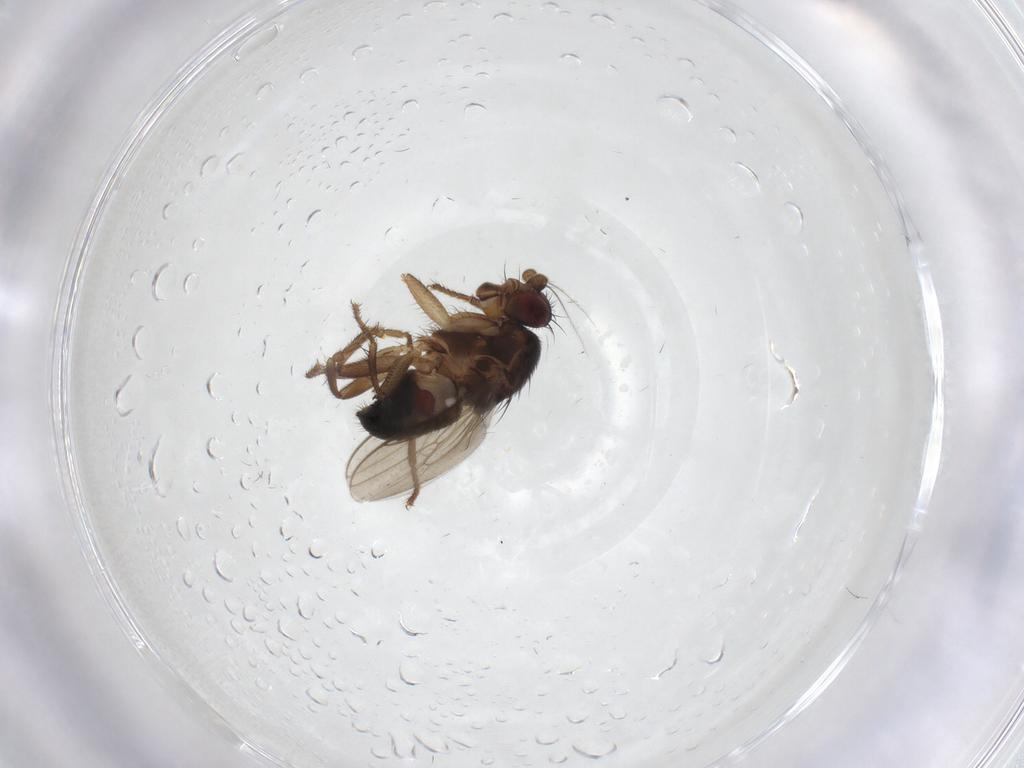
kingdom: Animalia
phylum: Arthropoda
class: Insecta
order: Diptera
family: Sphaeroceridae
